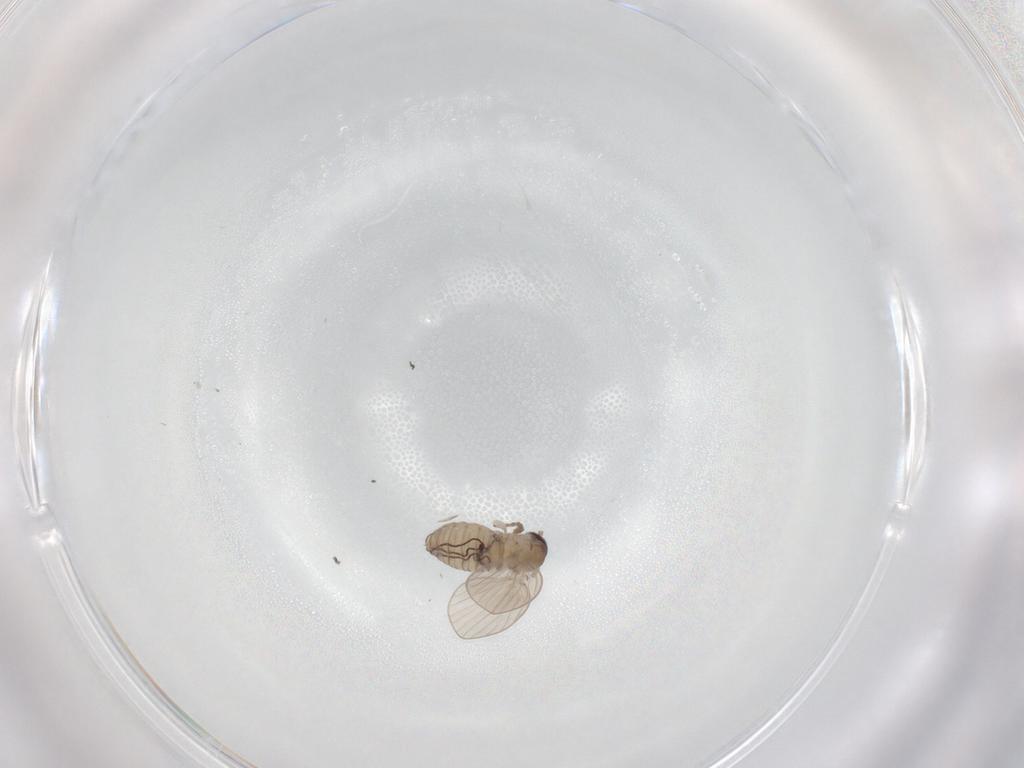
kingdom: Animalia
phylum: Arthropoda
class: Insecta
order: Diptera
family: Psychodidae
